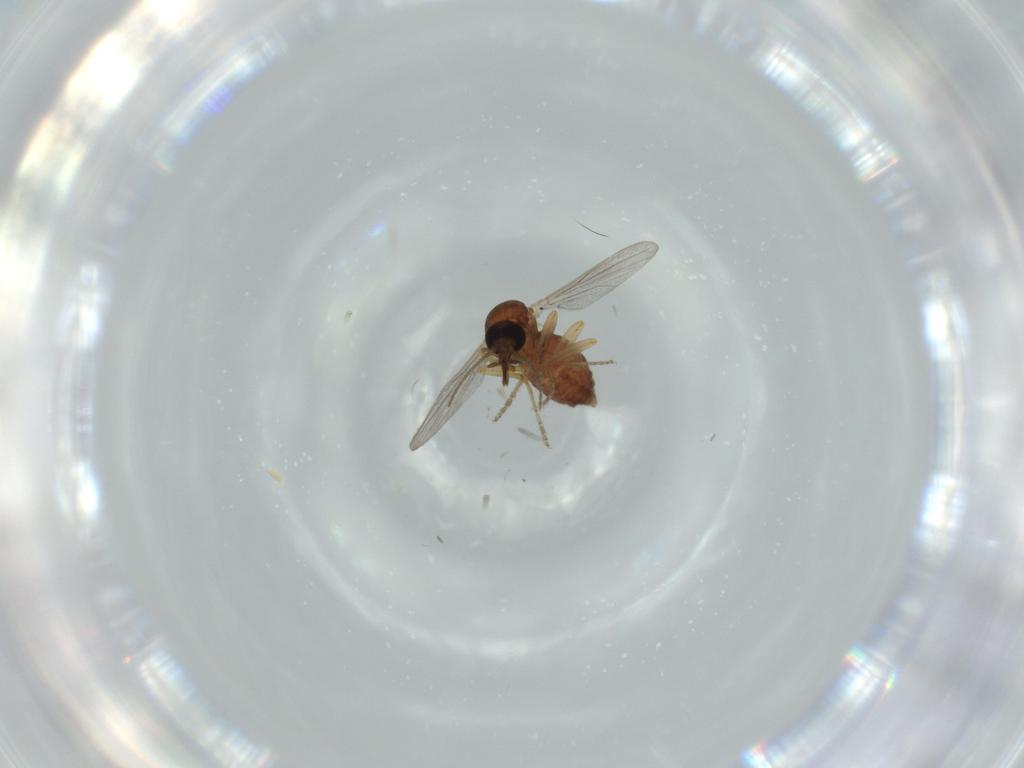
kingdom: Animalia
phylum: Arthropoda
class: Insecta
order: Diptera
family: Ceratopogonidae
